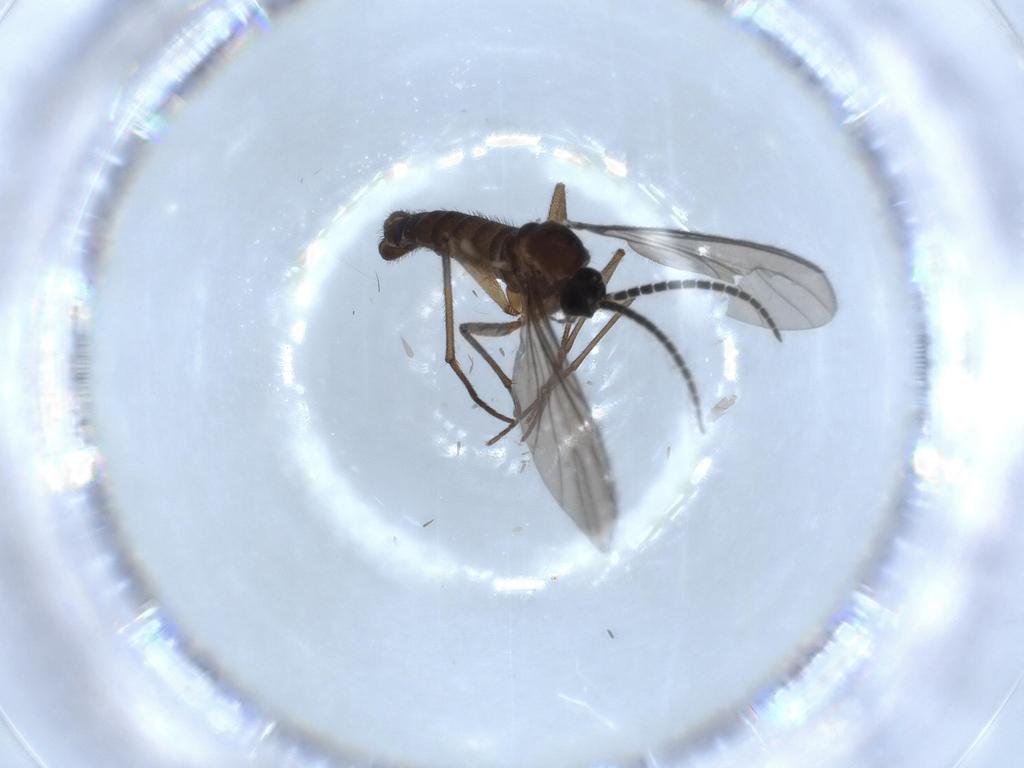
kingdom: Animalia
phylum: Arthropoda
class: Insecta
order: Diptera
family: Sciaridae
